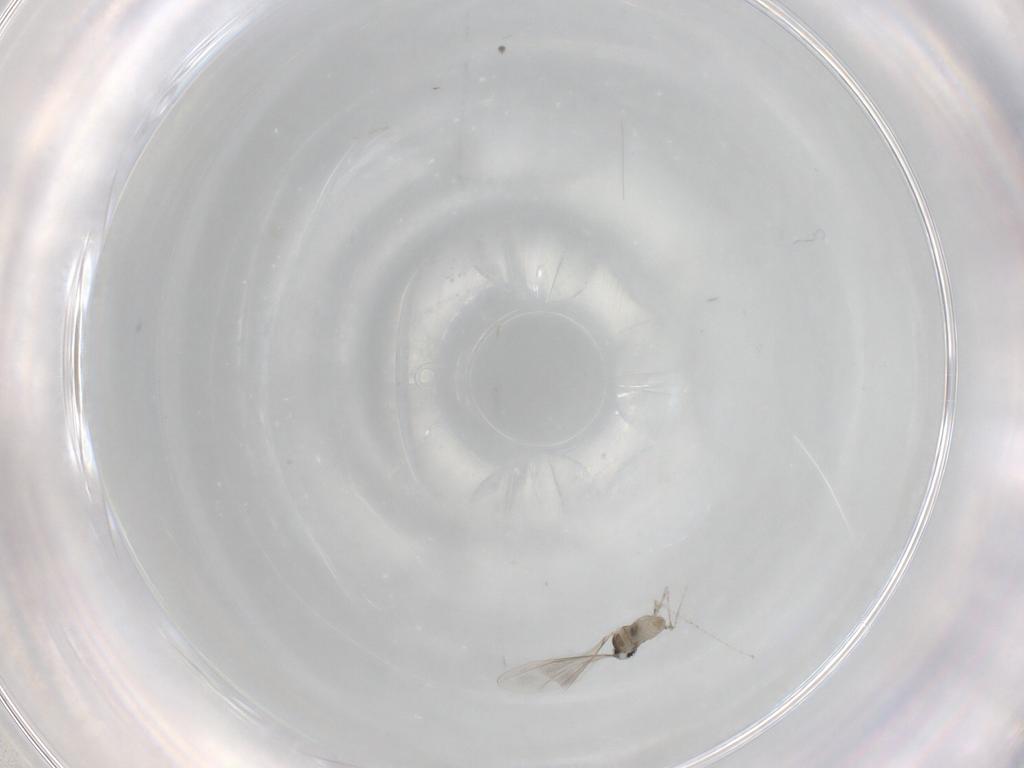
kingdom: Animalia
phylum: Arthropoda
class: Insecta
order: Diptera
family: Cecidomyiidae
